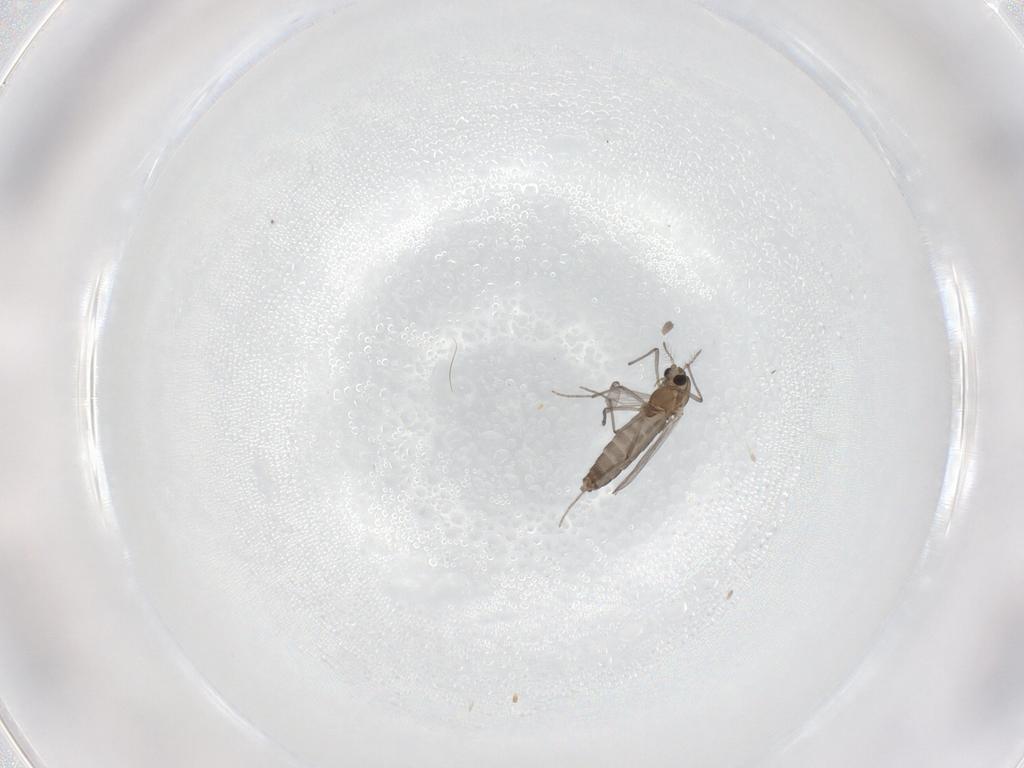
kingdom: Animalia
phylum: Arthropoda
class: Insecta
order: Diptera
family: Chironomidae
